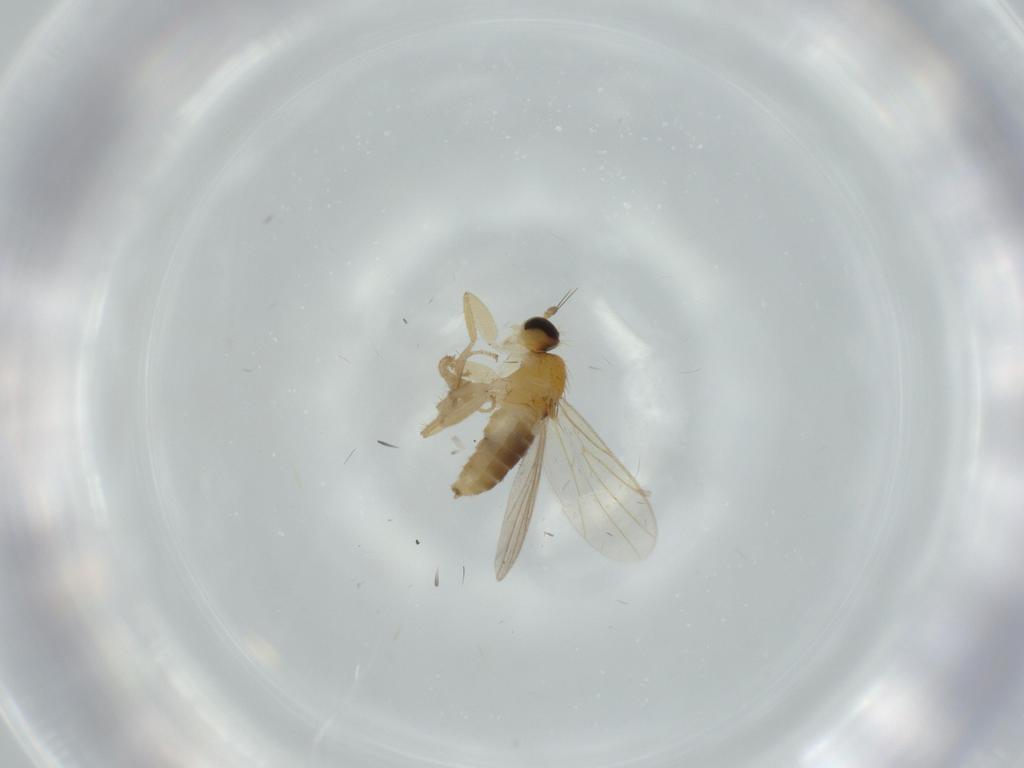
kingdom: Animalia
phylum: Arthropoda
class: Insecta
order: Diptera
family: Hybotidae
